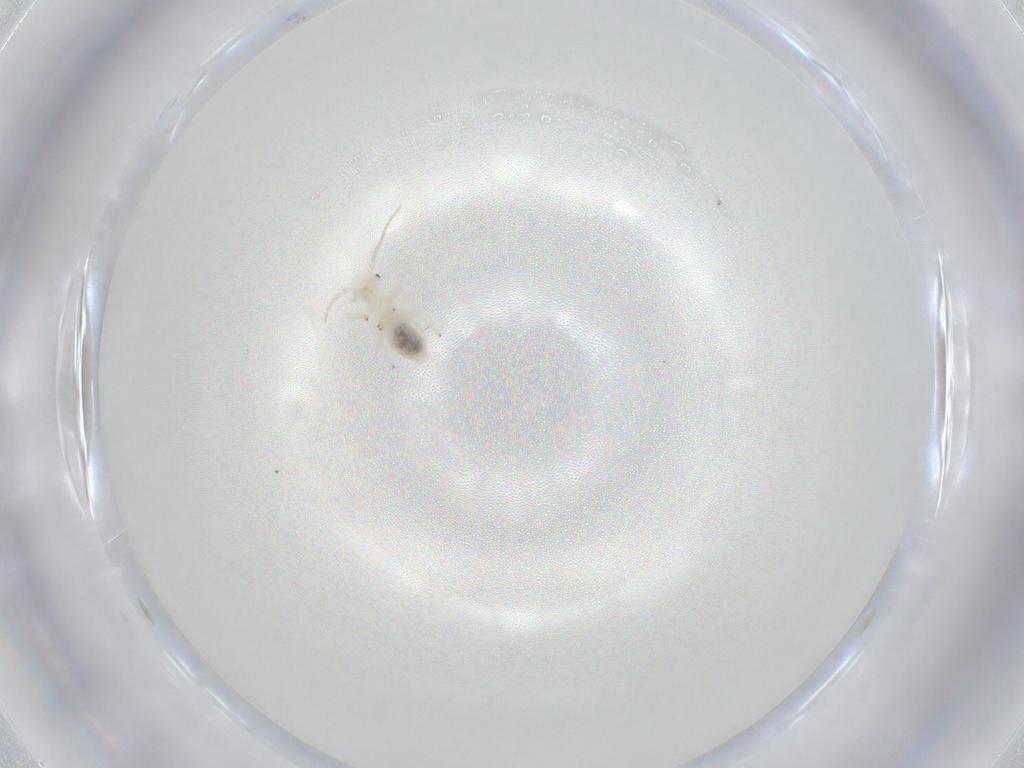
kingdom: Animalia
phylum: Arthropoda
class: Insecta
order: Psocodea
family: Philotarsidae
